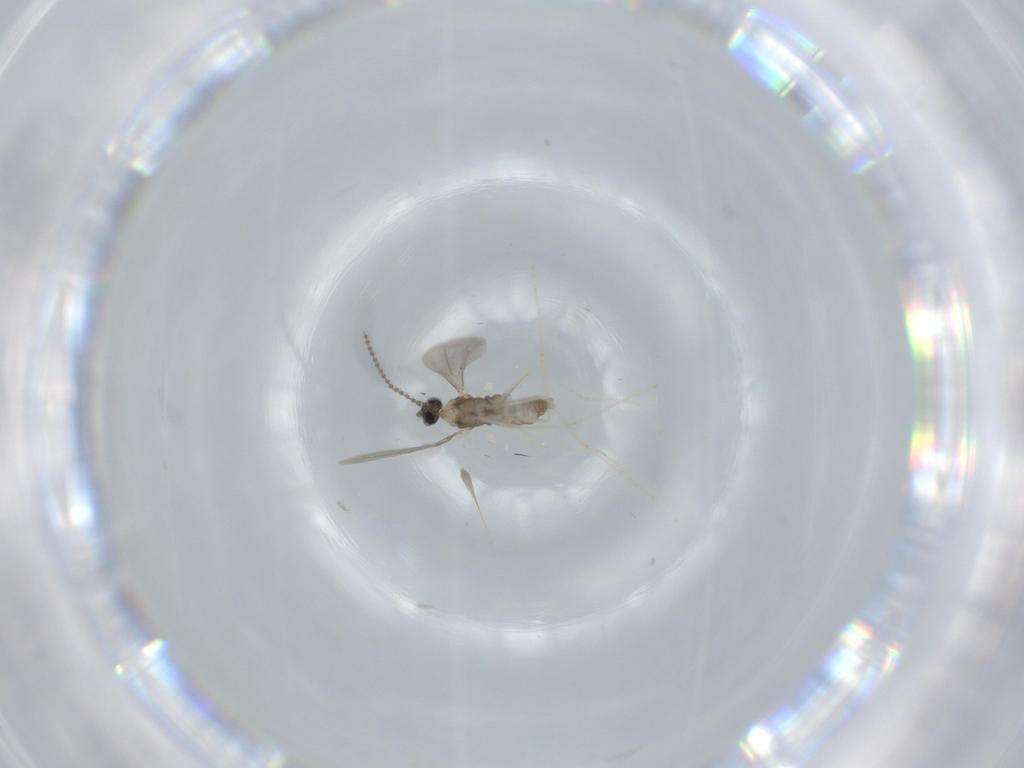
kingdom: Animalia
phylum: Arthropoda
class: Insecta
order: Diptera
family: Cecidomyiidae
